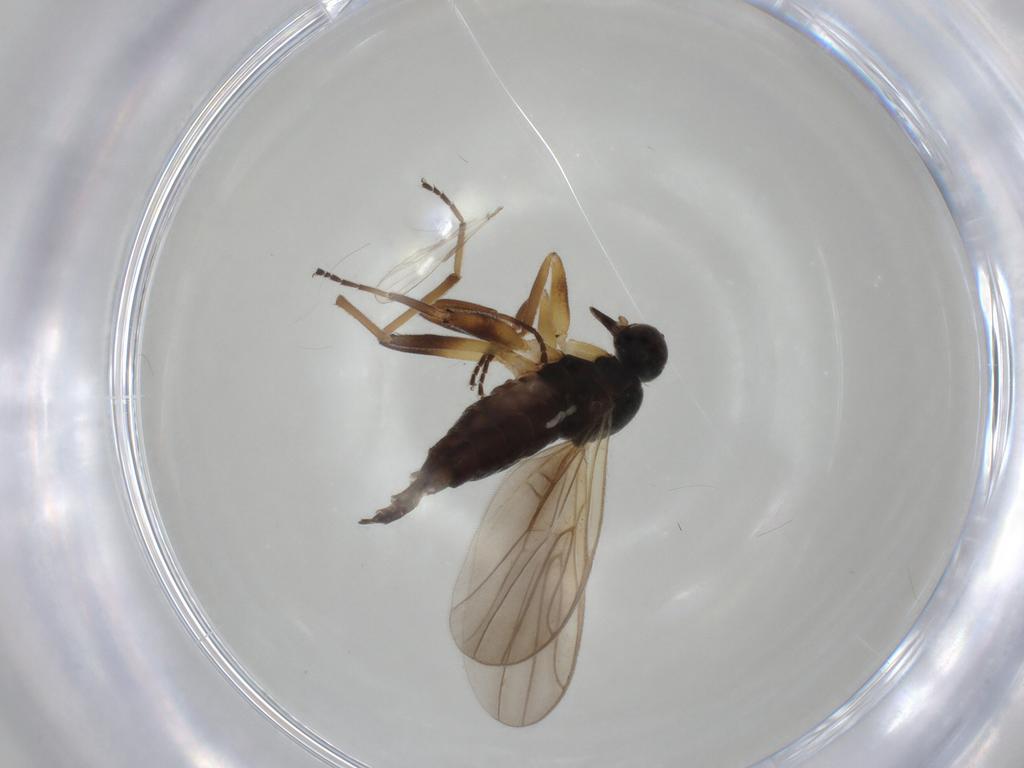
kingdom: Animalia
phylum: Arthropoda
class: Insecta
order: Diptera
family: Hybotidae
